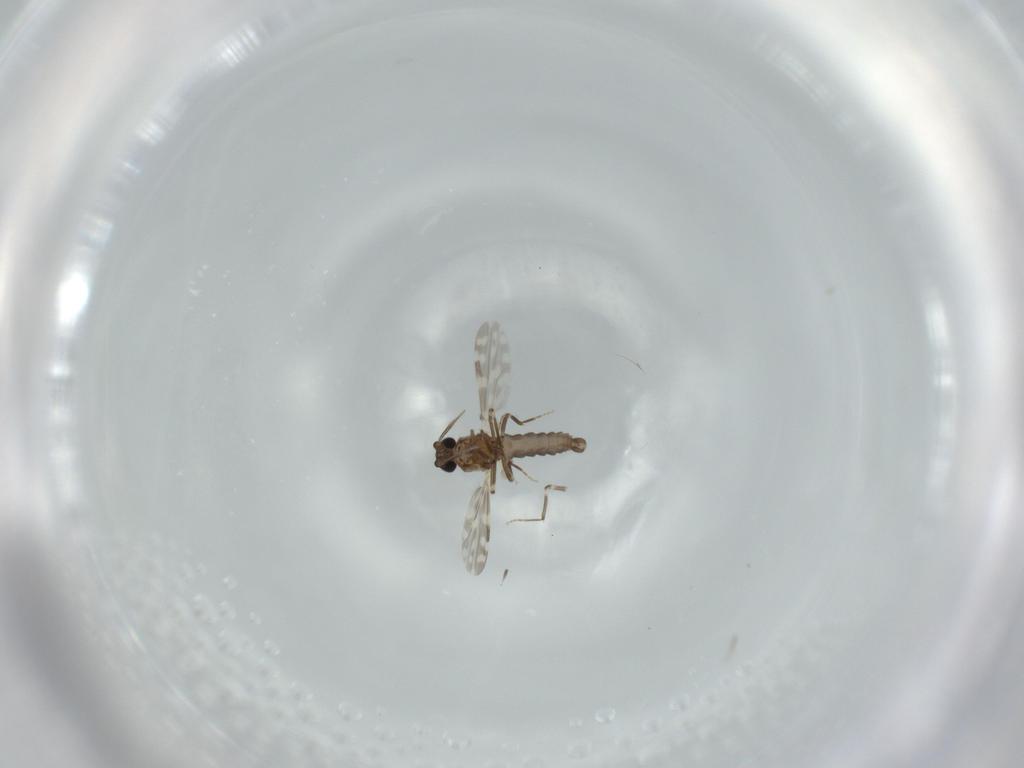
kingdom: Animalia
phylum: Arthropoda
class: Insecta
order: Diptera
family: Ceratopogonidae
